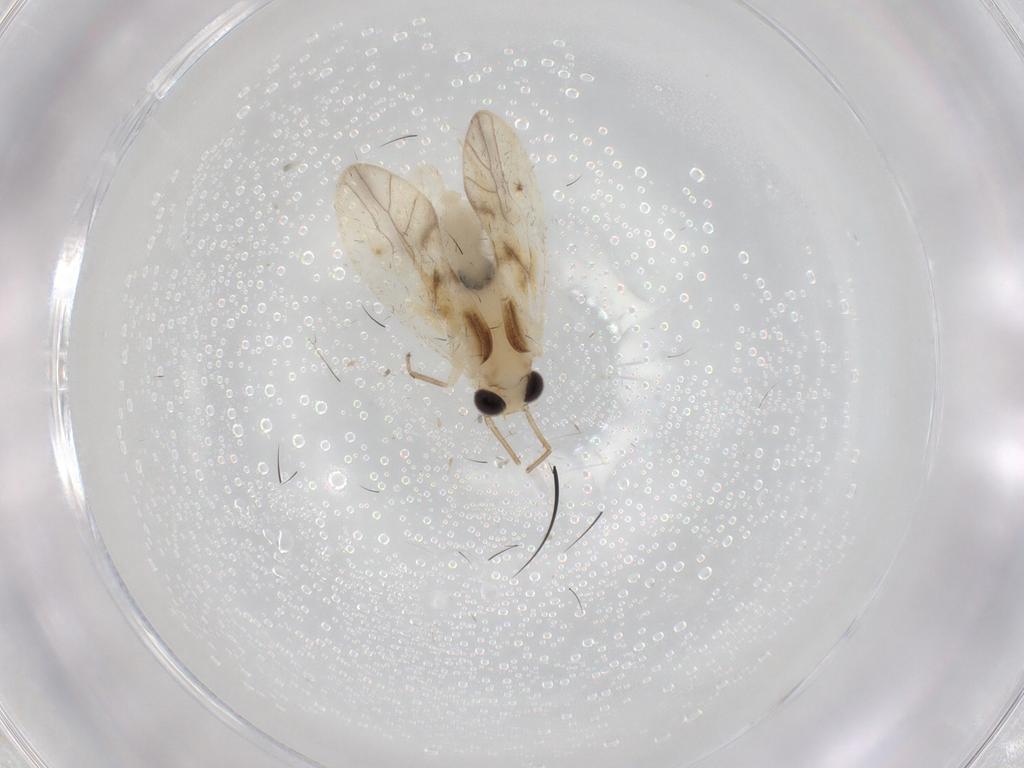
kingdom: Animalia
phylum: Arthropoda
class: Insecta
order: Psocodea
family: Caeciliusidae
